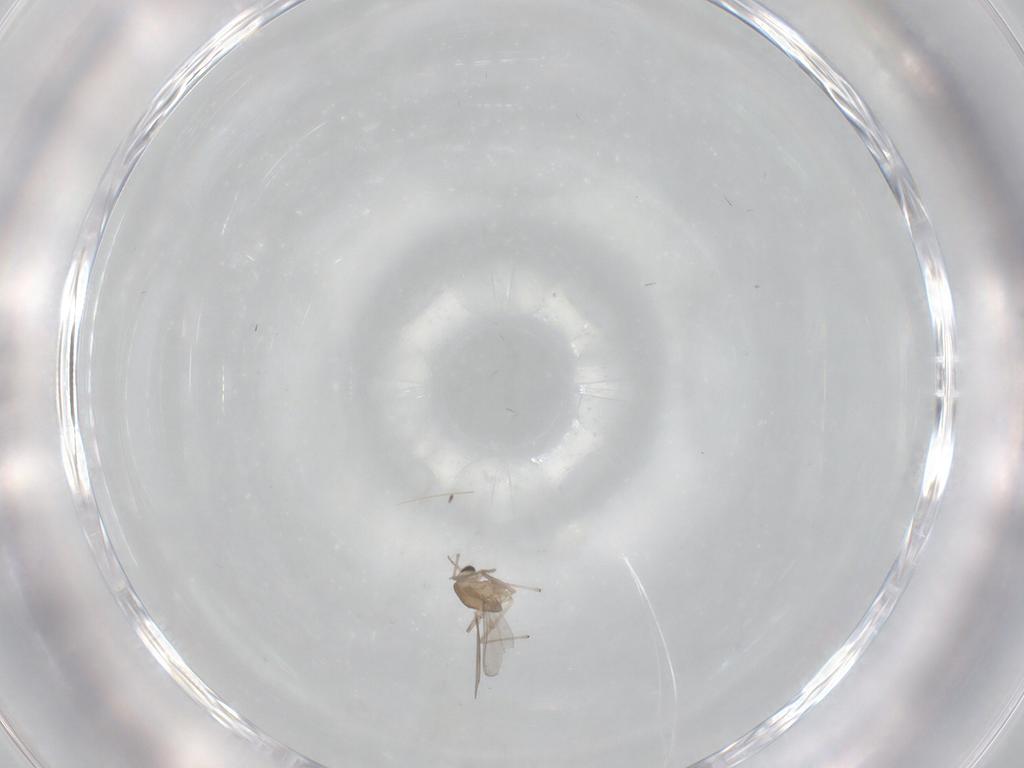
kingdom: Animalia
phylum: Arthropoda
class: Insecta
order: Diptera
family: Chironomidae
